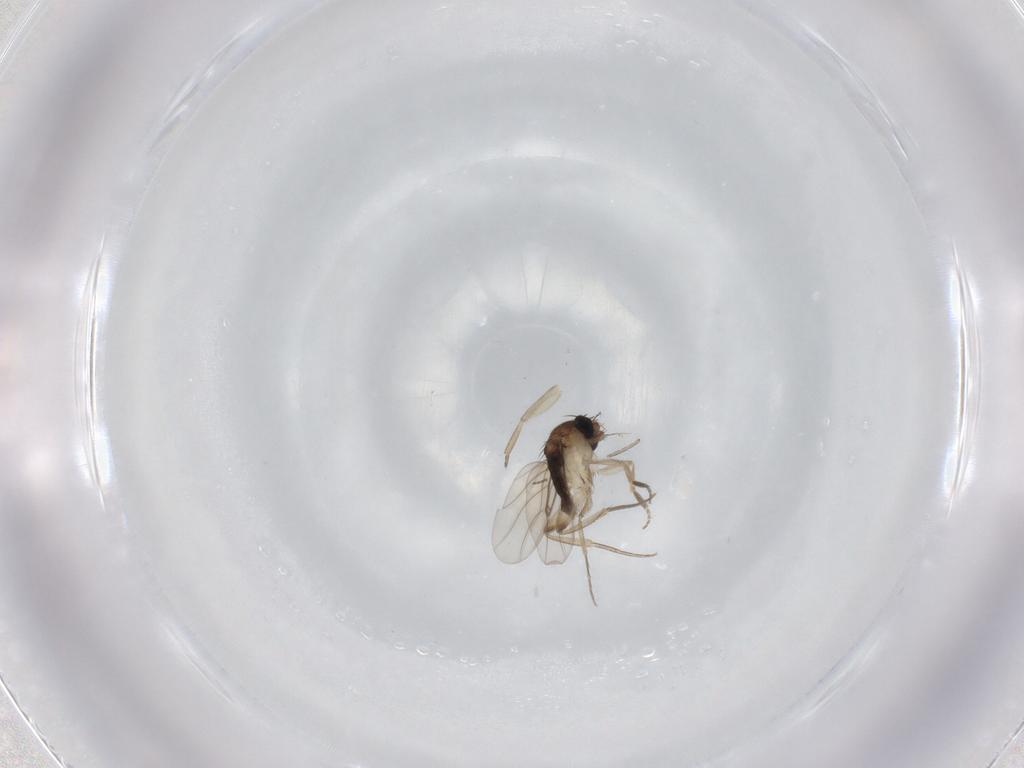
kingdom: Animalia
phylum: Arthropoda
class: Insecta
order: Diptera
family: Phoridae
